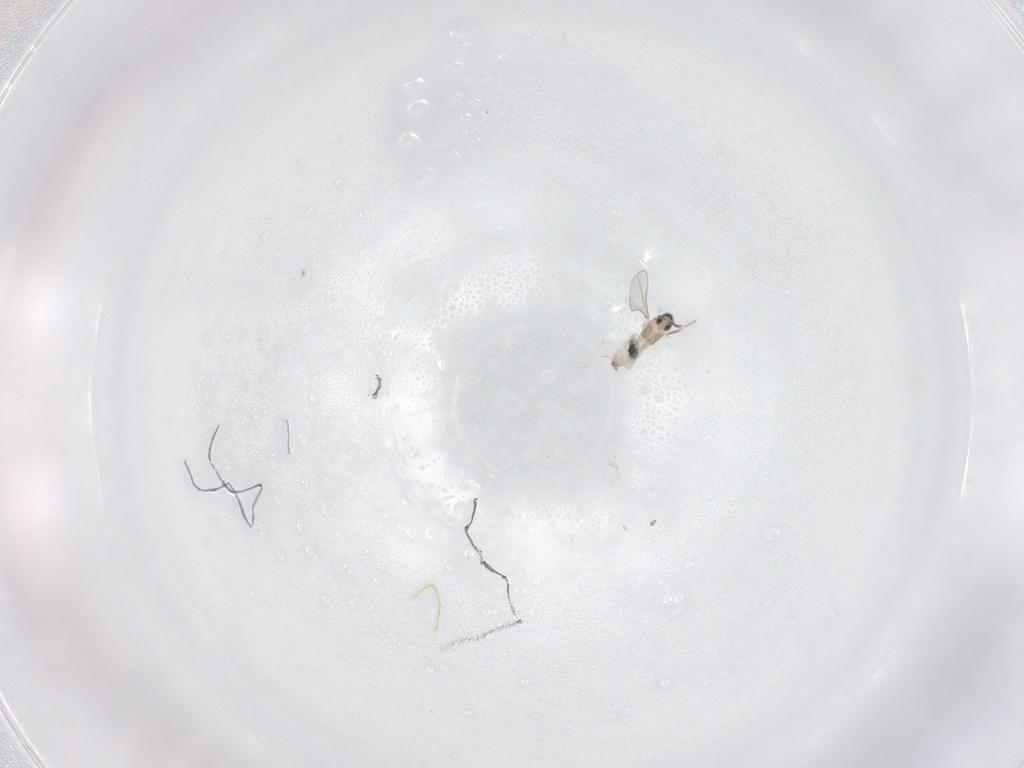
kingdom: Animalia
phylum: Arthropoda
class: Insecta
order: Diptera
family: Cecidomyiidae
